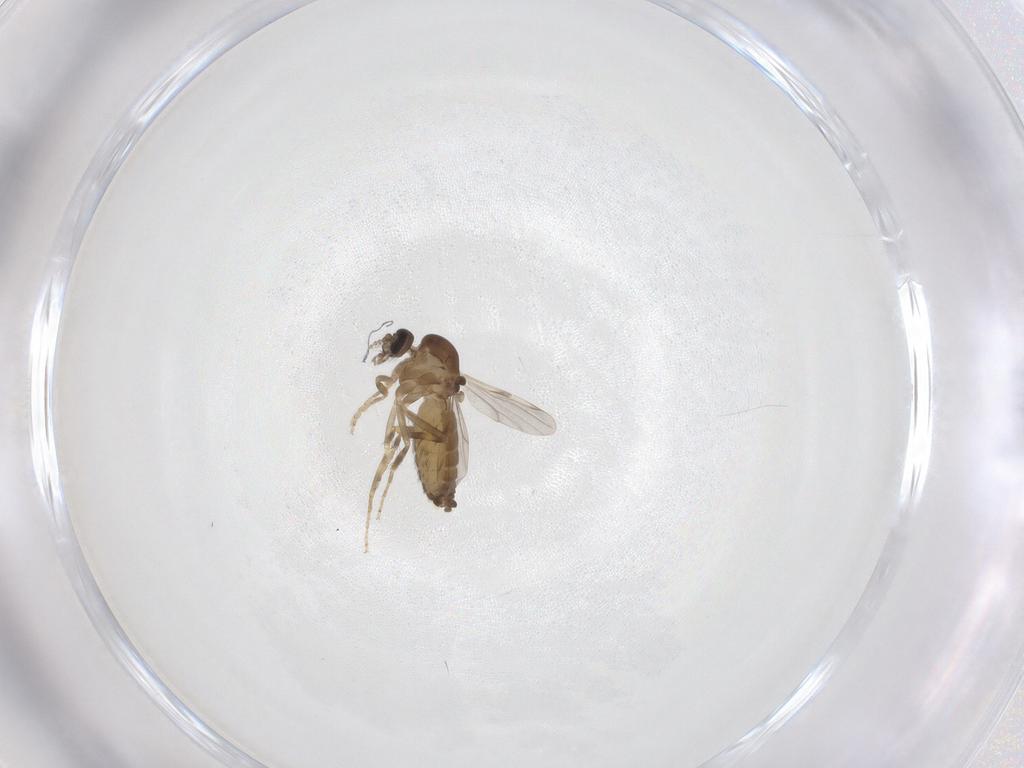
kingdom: Animalia
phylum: Arthropoda
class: Insecta
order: Diptera
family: Ceratopogonidae
